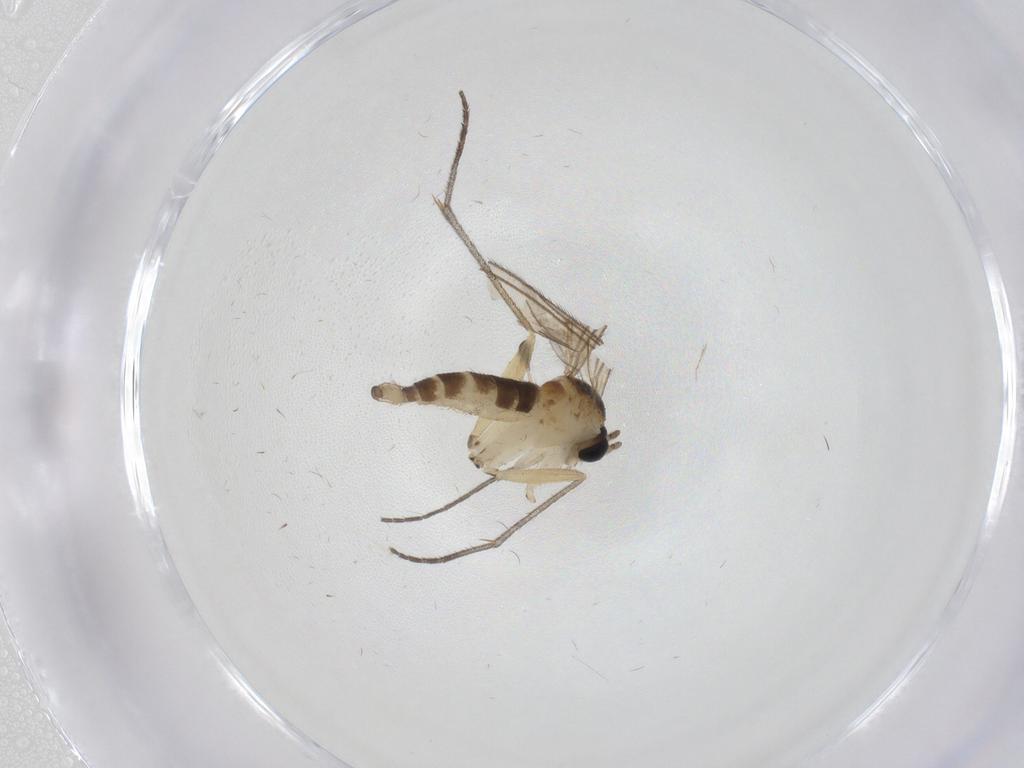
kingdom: Animalia
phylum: Arthropoda
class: Insecta
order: Diptera
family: Sciaridae
